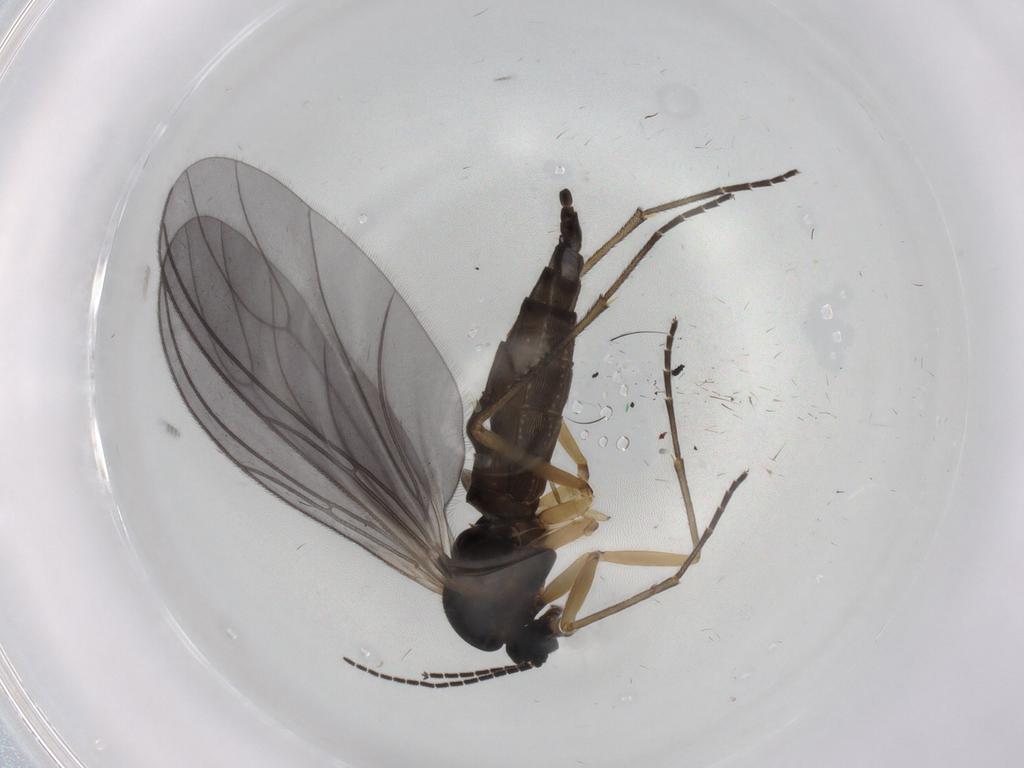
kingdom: Animalia
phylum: Arthropoda
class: Insecta
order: Diptera
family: Sciaridae
